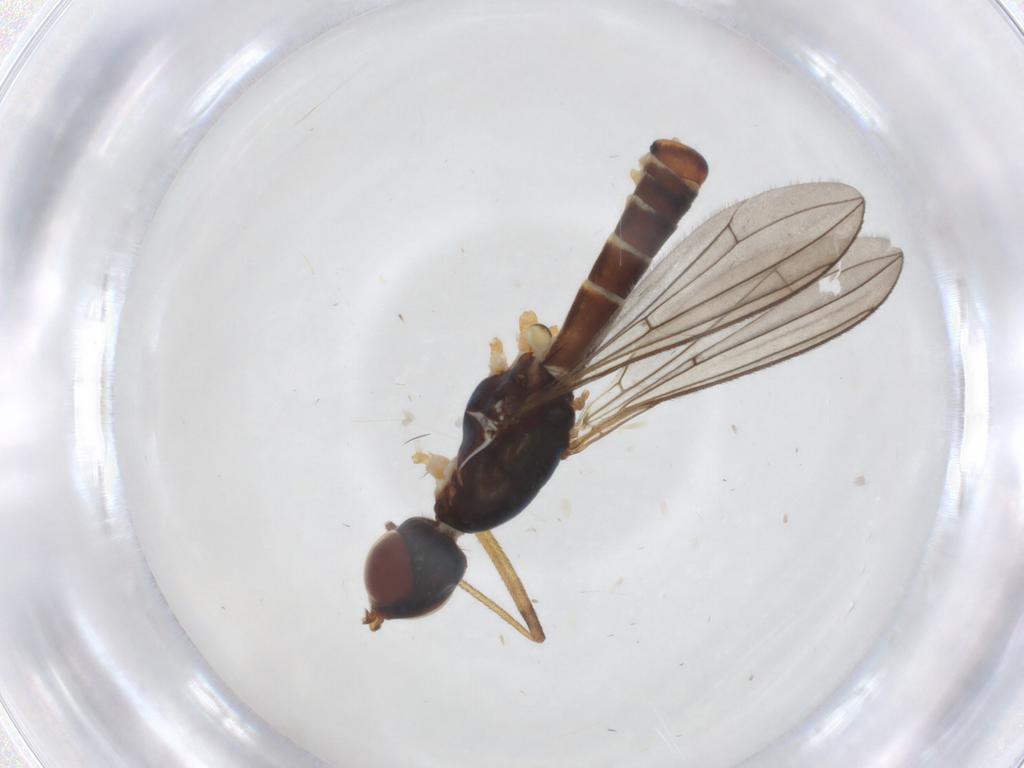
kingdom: Animalia
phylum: Arthropoda
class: Insecta
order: Diptera
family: Micropezidae
